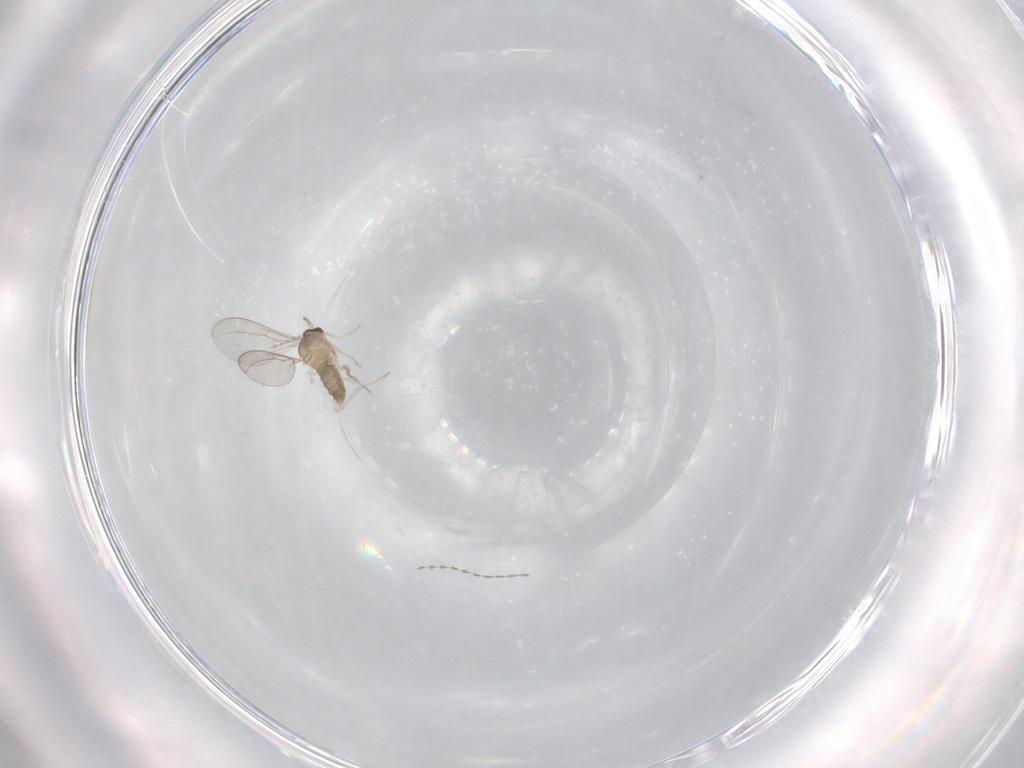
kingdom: Animalia
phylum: Arthropoda
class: Insecta
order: Diptera
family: Cecidomyiidae
